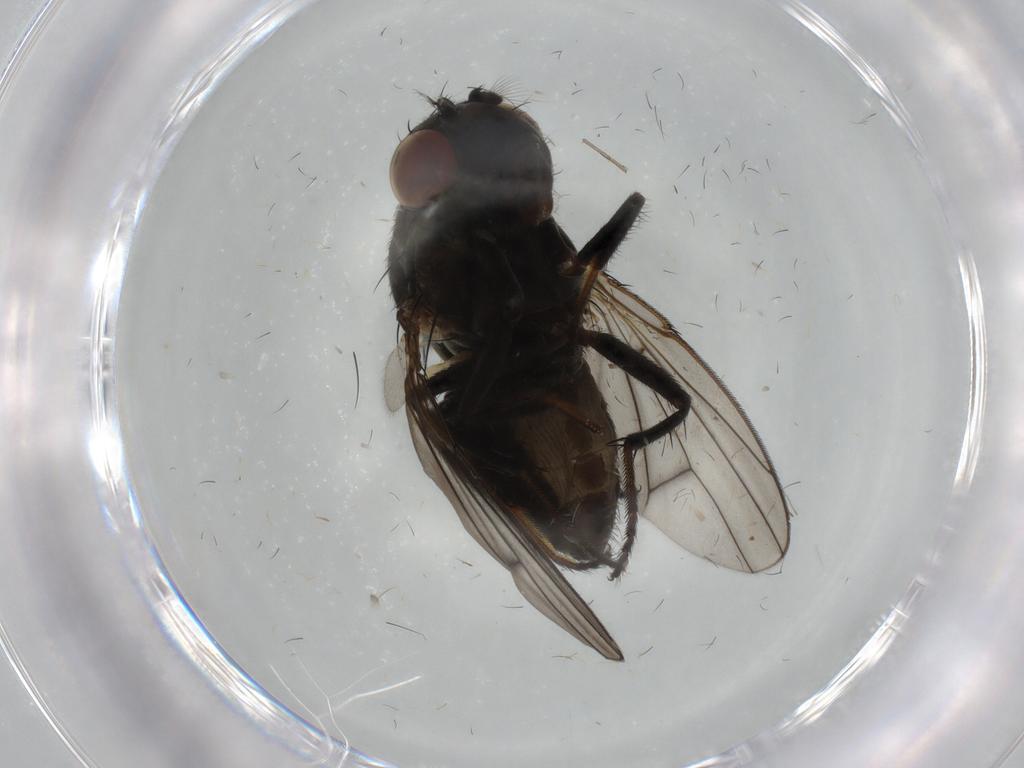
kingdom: Animalia
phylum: Arthropoda
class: Insecta
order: Diptera
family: Ephydridae
